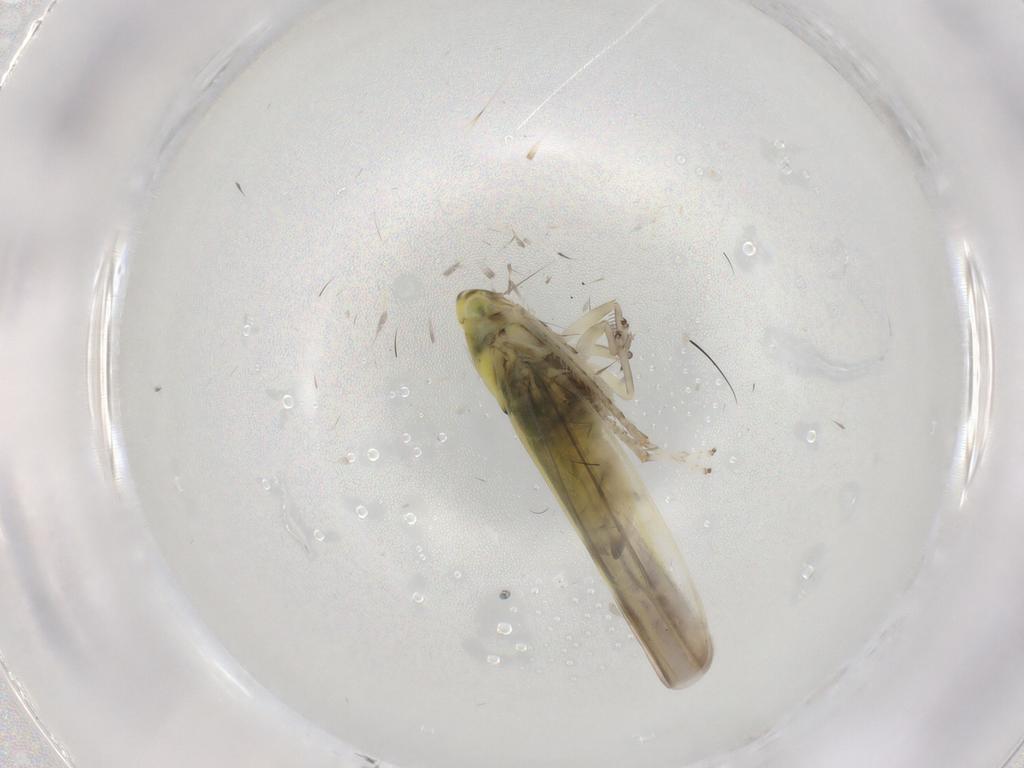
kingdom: Animalia
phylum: Arthropoda
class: Insecta
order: Hemiptera
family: Cicadellidae
